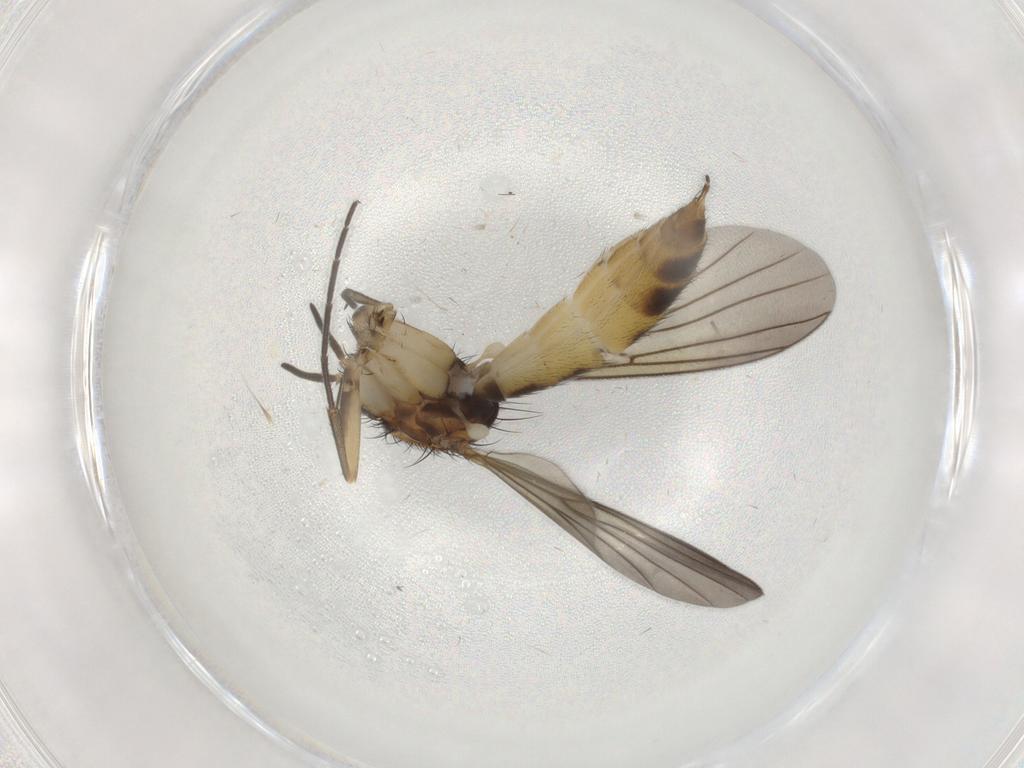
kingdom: Animalia
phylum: Arthropoda
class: Insecta
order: Diptera
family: Mycetophilidae
